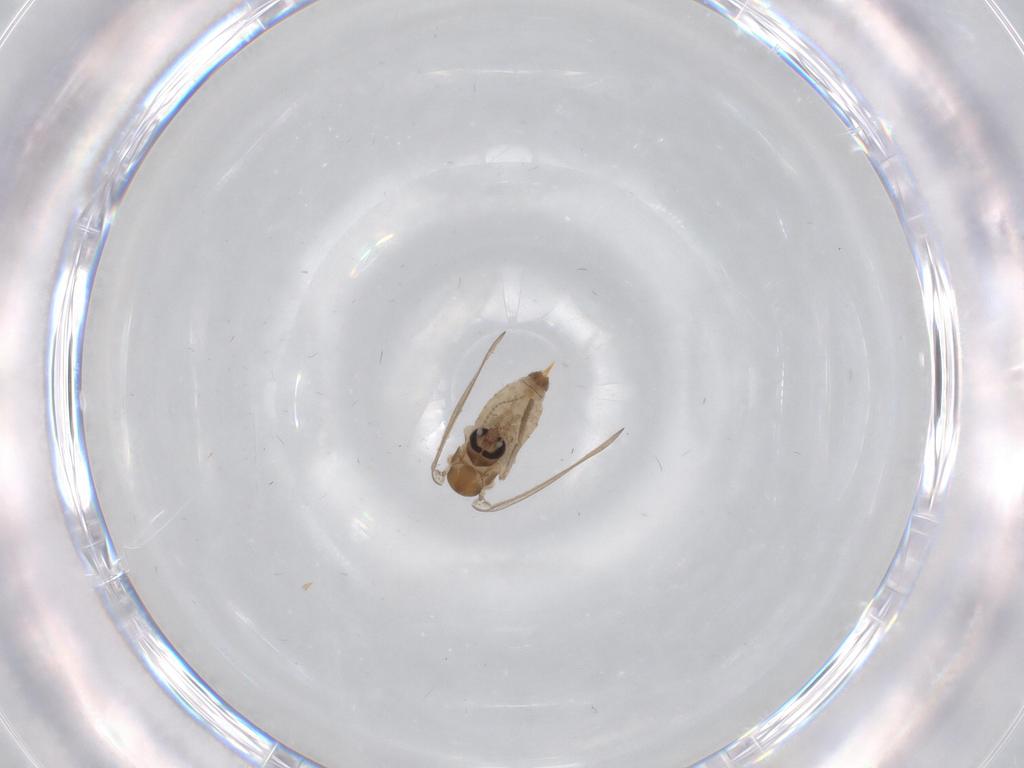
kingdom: Animalia
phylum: Arthropoda
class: Insecta
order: Diptera
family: Psychodidae
